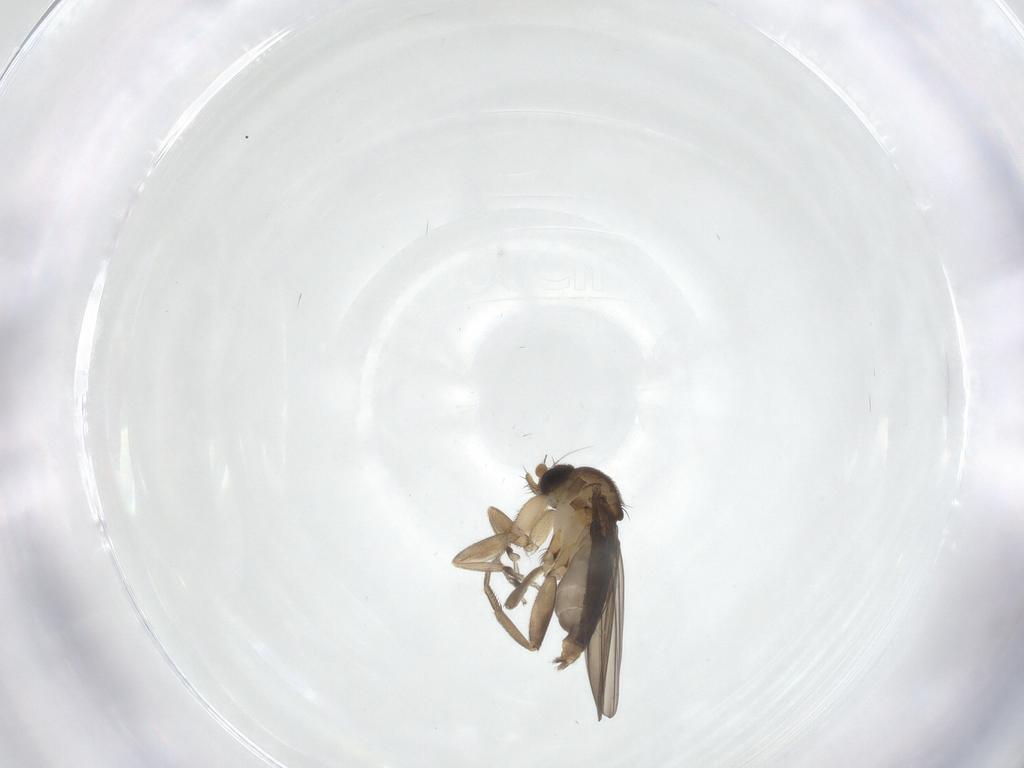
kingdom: Animalia
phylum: Arthropoda
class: Insecta
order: Diptera
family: Phoridae
